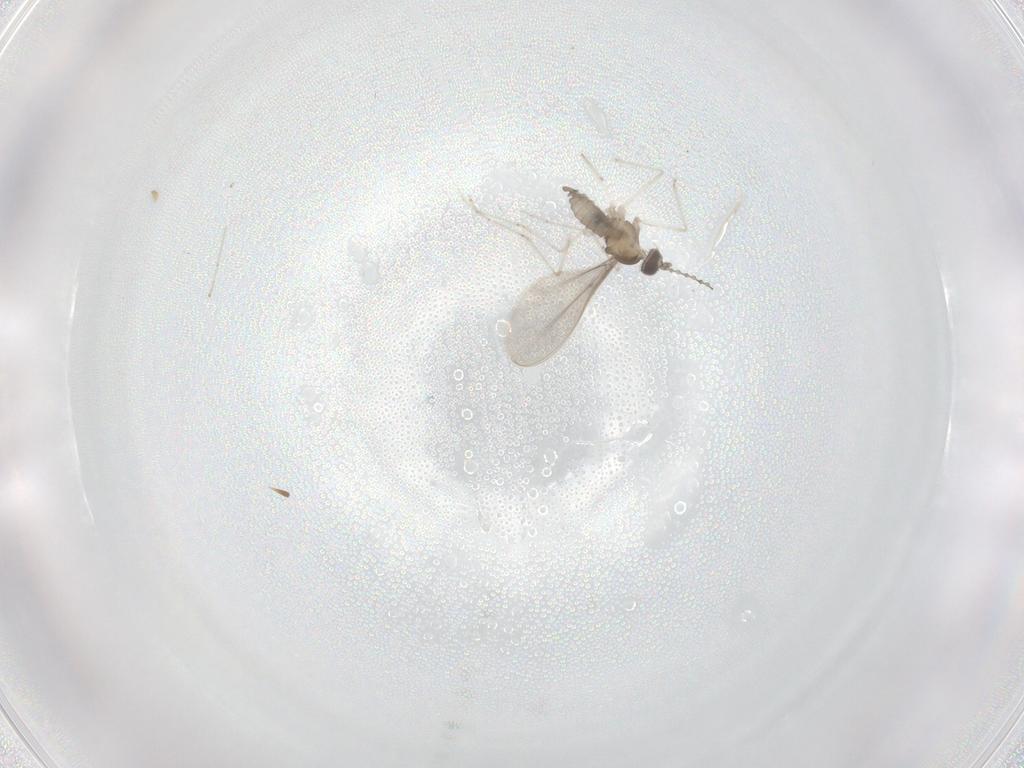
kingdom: Animalia
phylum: Arthropoda
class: Insecta
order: Diptera
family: Cecidomyiidae
